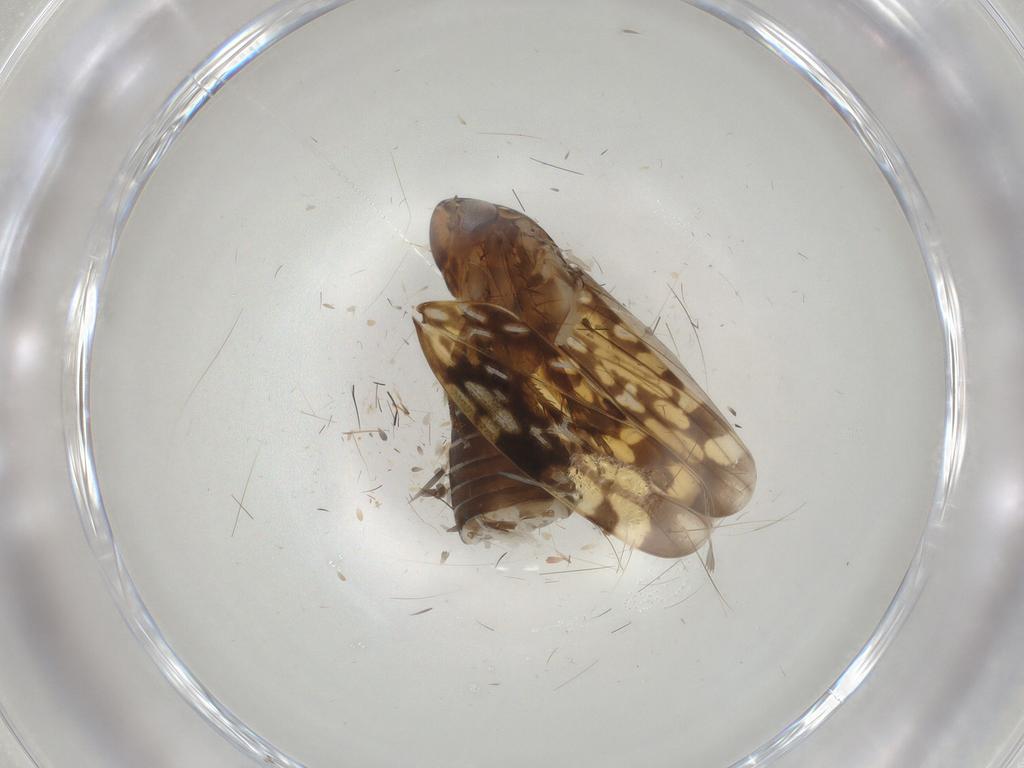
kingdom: Animalia
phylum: Arthropoda
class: Insecta
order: Hemiptera
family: Cicadellidae
